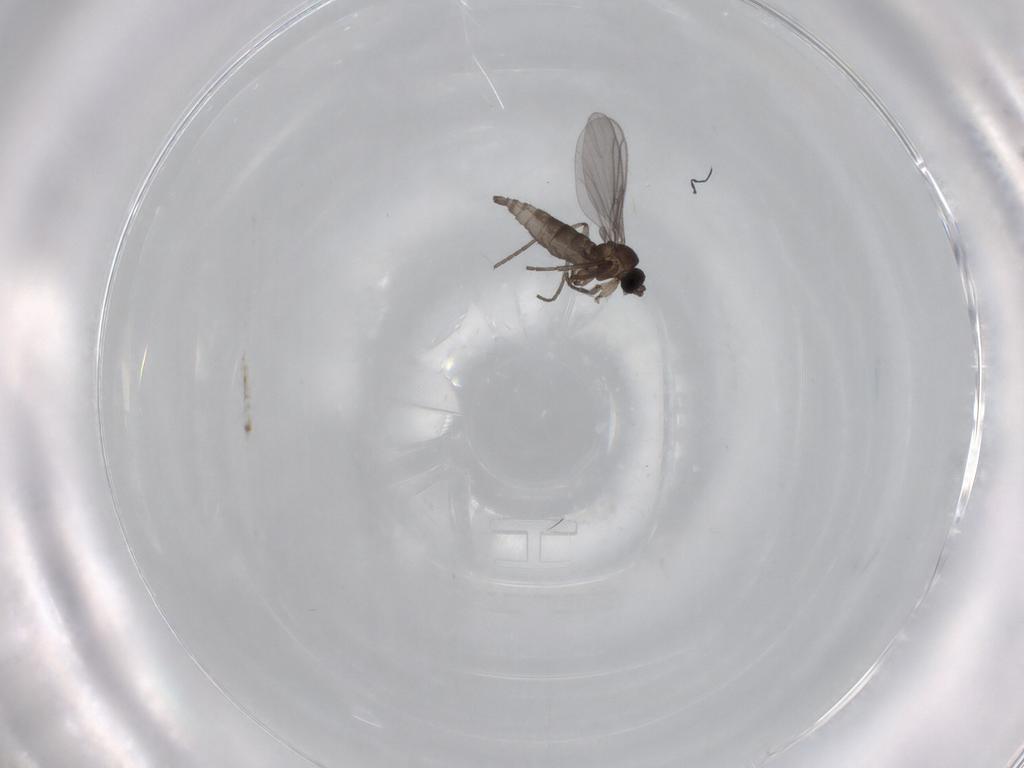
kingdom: Animalia
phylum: Arthropoda
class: Insecta
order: Diptera
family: Sciaridae
